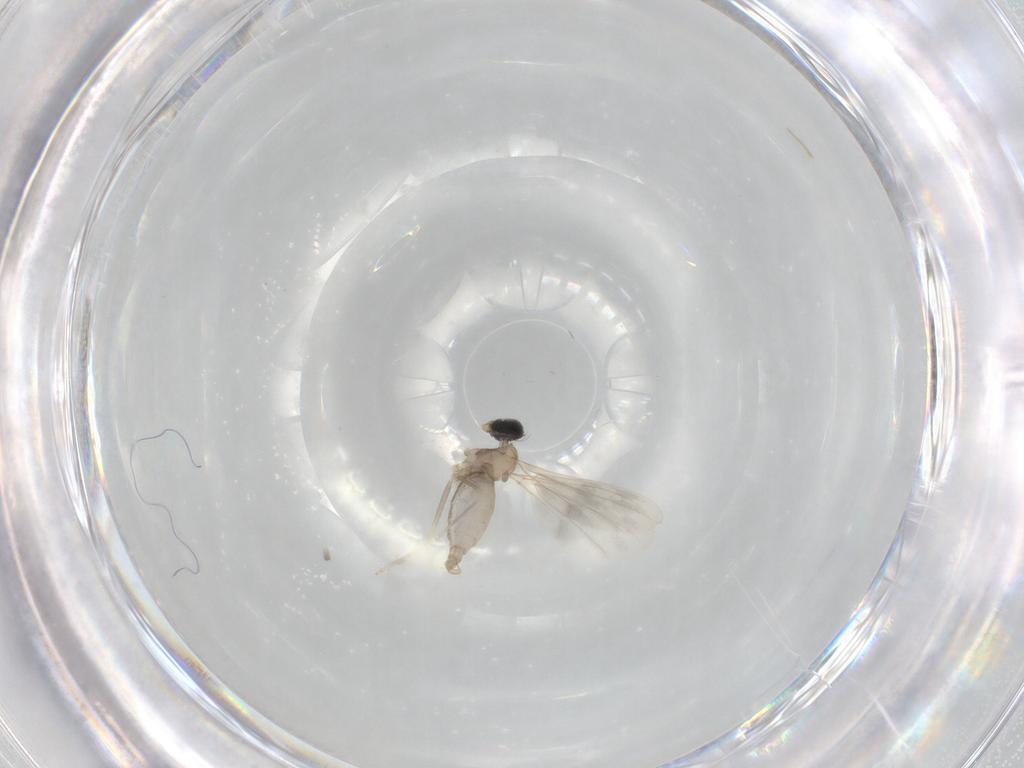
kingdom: Animalia
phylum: Arthropoda
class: Insecta
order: Diptera
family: Cecidomyiidae
